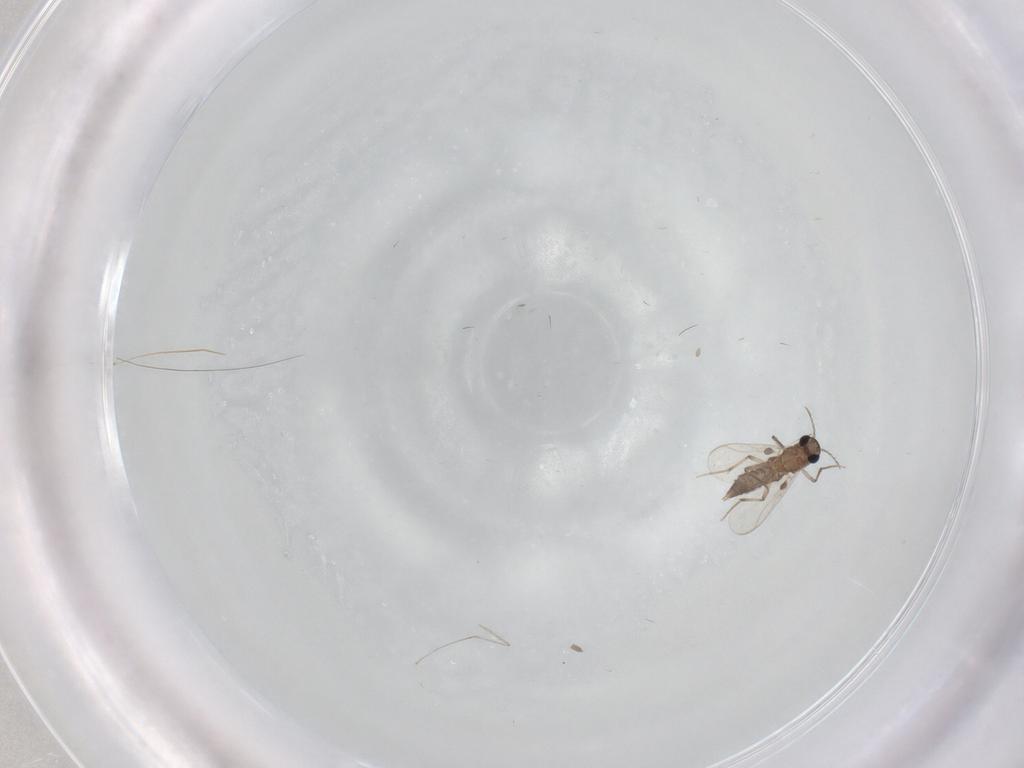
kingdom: Animalia
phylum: Arthropoda
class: Insecta
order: Diptera
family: Chironomidae
